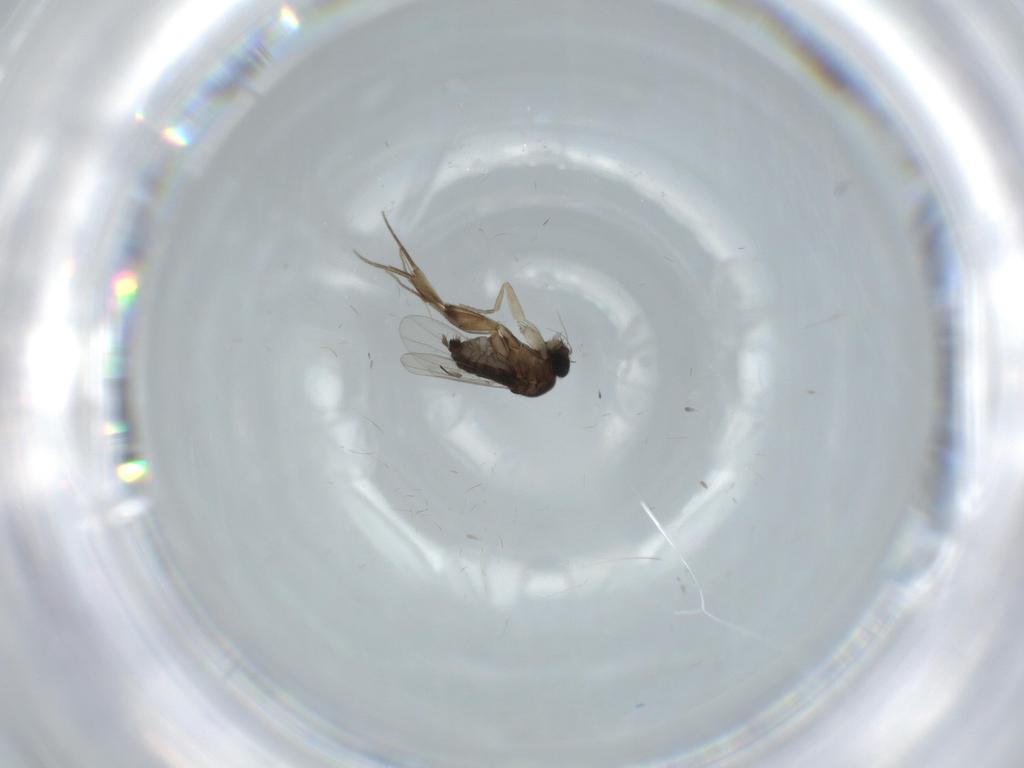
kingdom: Animalia
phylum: Arthropoda
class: Insecta
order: Diptera
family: Phoridae
